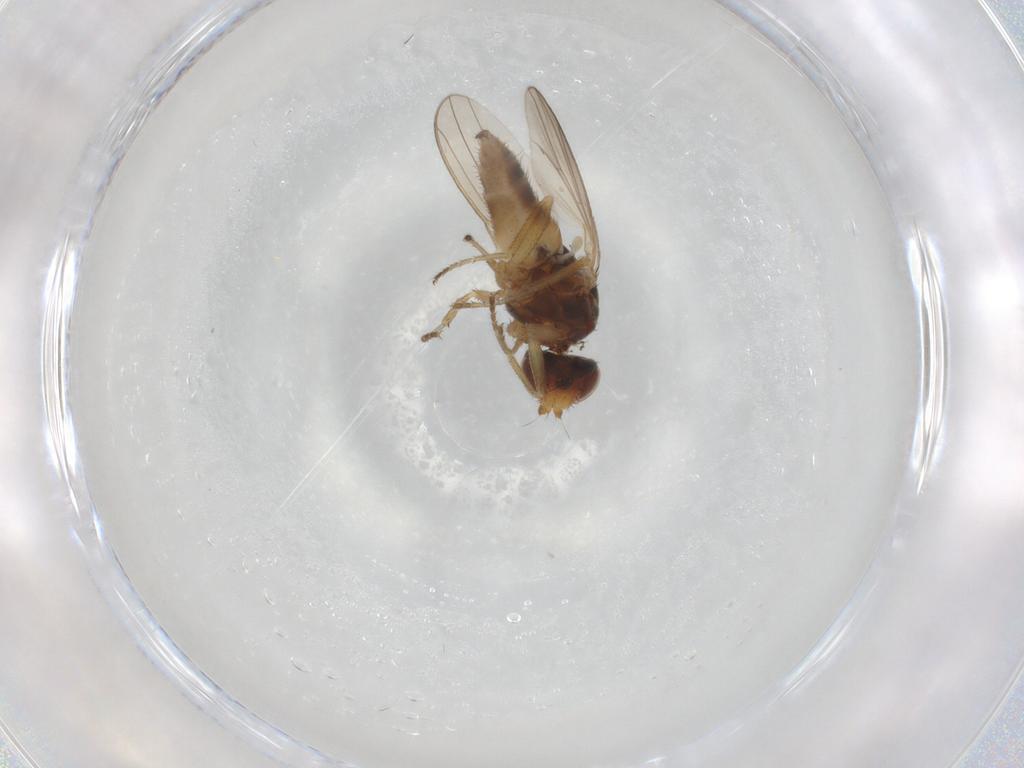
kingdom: Animalia
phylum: Arthropoda
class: Insecta
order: Diptera
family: Canacidae
